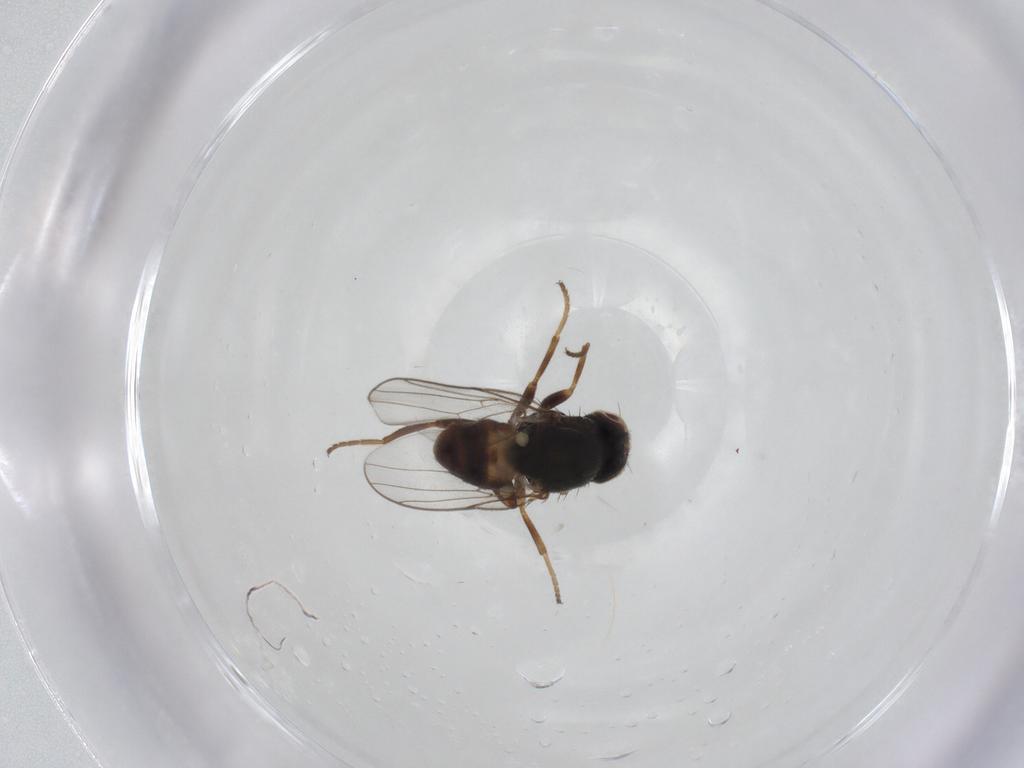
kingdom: Animalia
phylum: Arthropoda
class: Insecta
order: Diptera
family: Chloropidae
